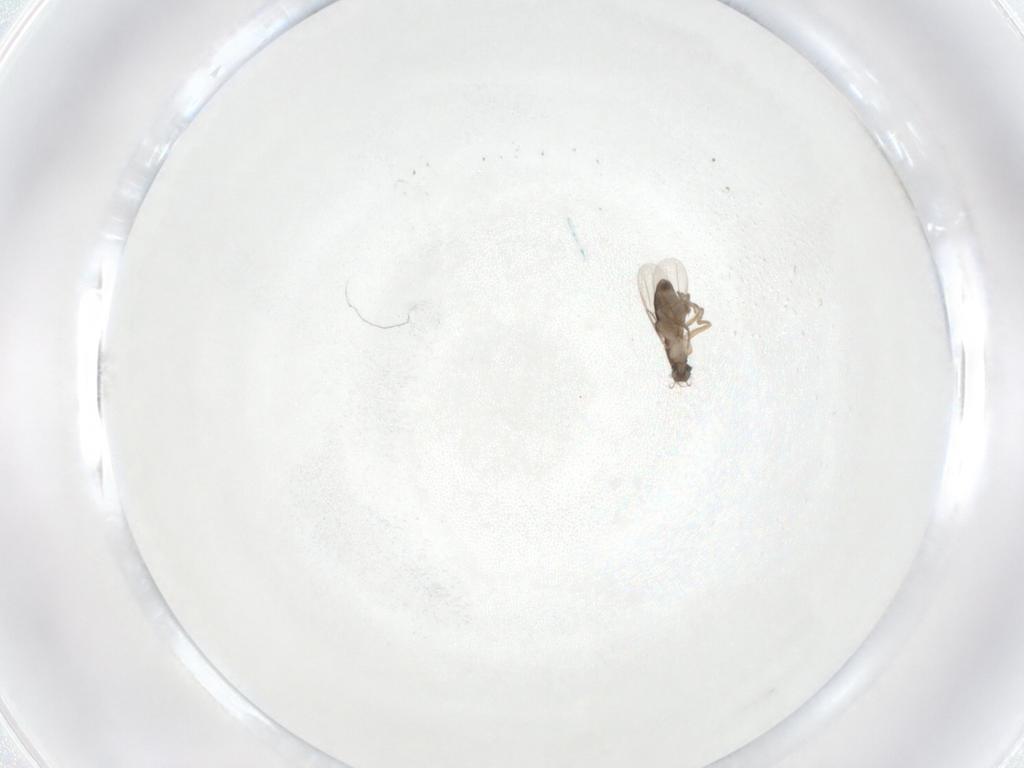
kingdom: Animalia
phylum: Arthropoda
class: Insecta
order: Diptera
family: Phoridae
